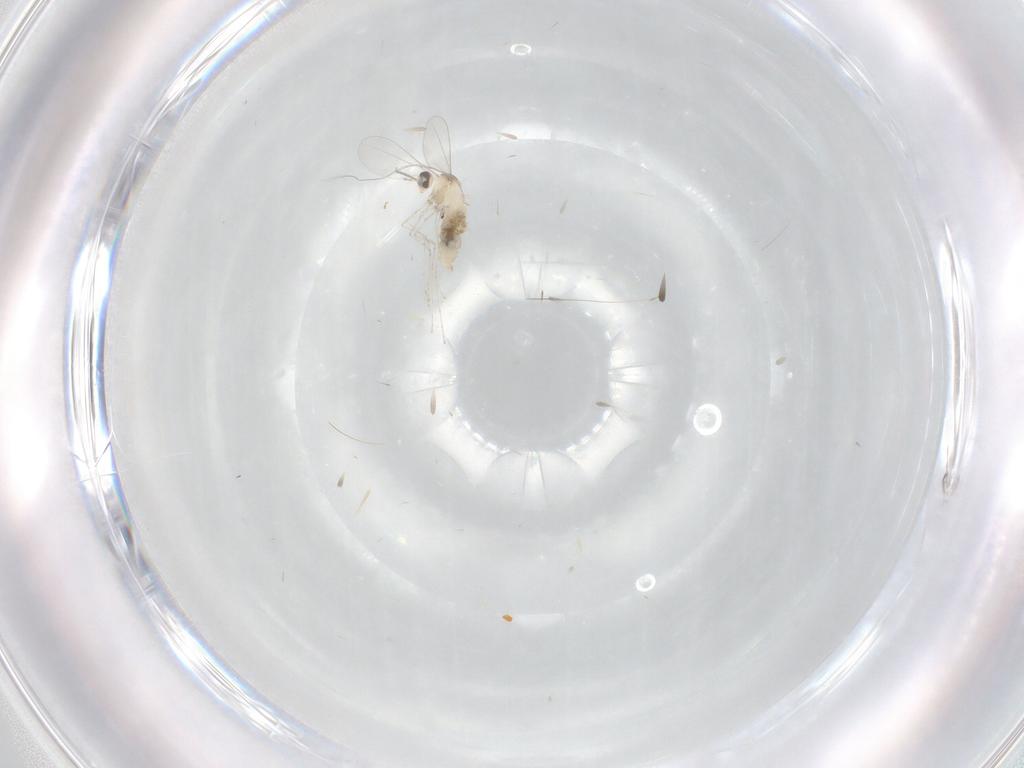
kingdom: Animalia
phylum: Arthropoda
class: Insecta
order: Diptera
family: Cecidomyiidae
